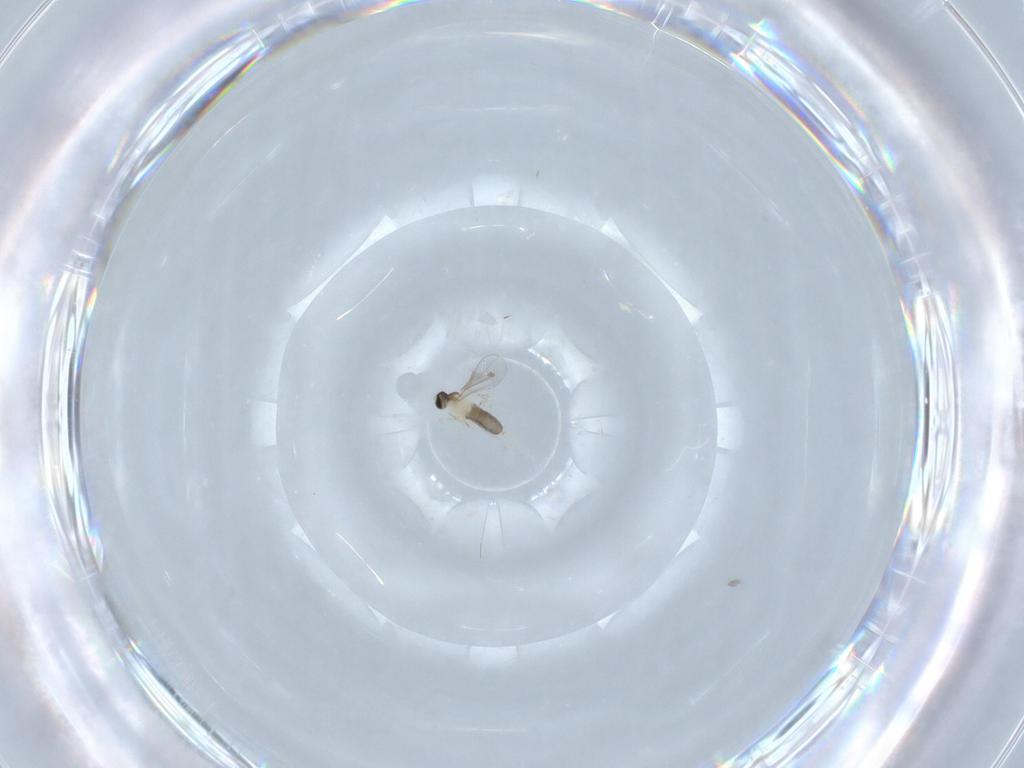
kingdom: Animalia
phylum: Arthropoda
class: Insecta
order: Diptera
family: Cecidomyiidae
